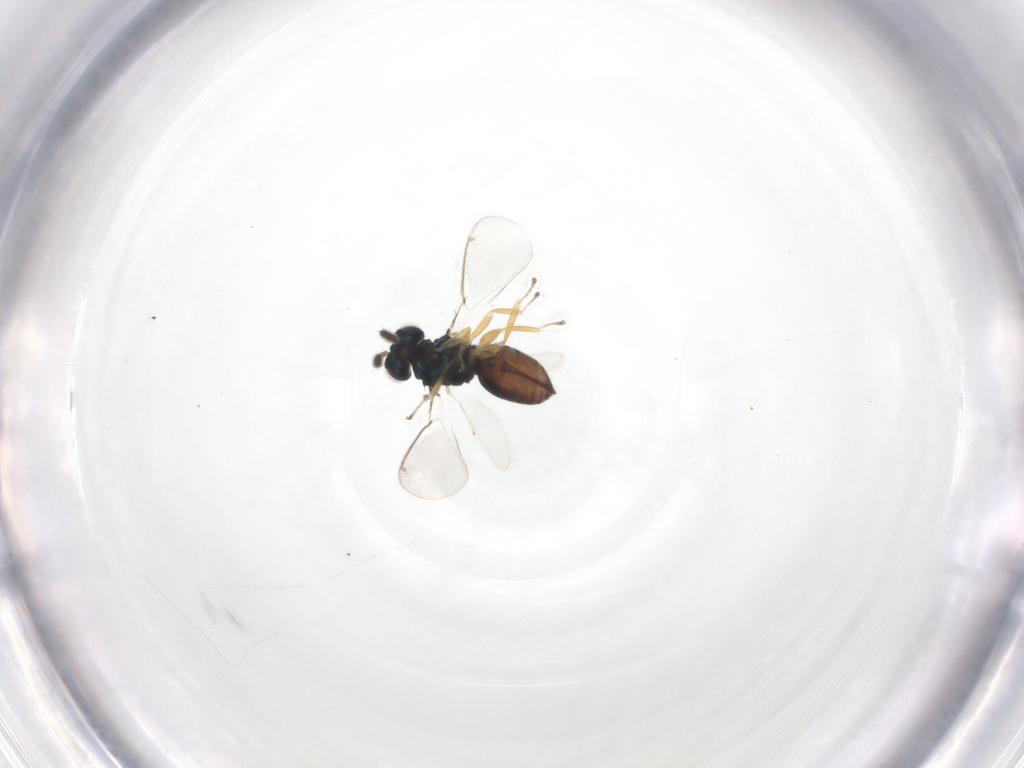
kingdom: Animalia
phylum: Arthropoda
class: Insecta
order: Hymenoptera
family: Eulophidae
